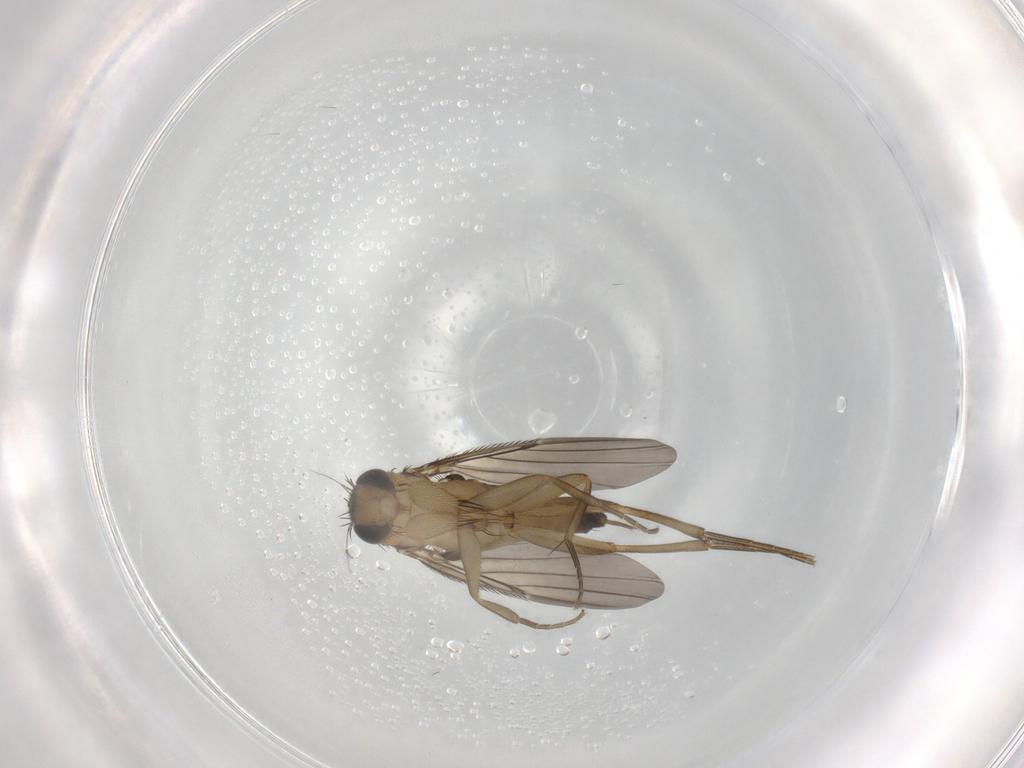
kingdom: Animalia
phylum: Arthropoda
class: Insecta
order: Diptera
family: Phoridae
